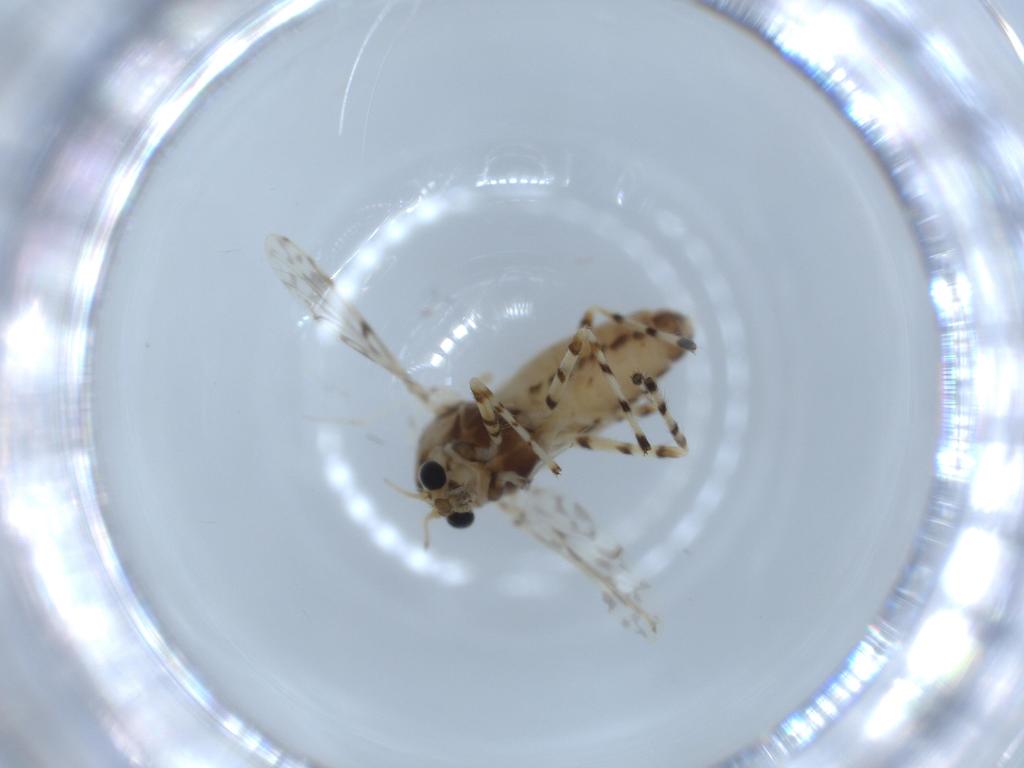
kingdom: Animalia
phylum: Arthropoda
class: Insecta
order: Diptera
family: Chironomidae
